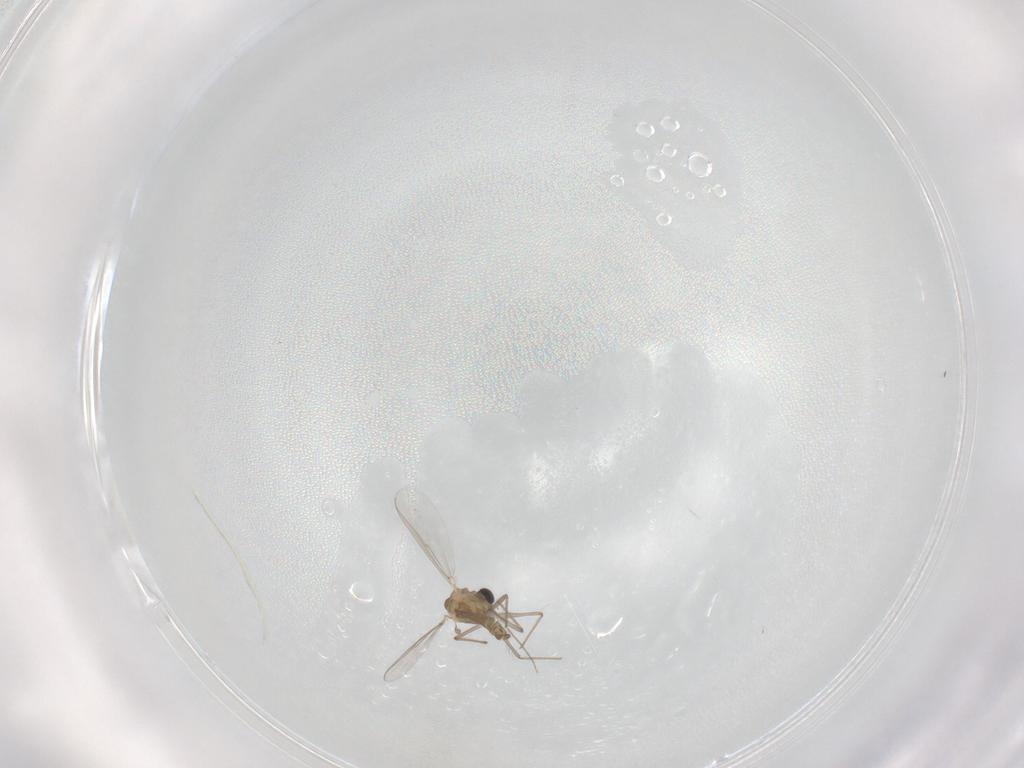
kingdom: Animalia
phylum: Arthropoda
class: Insecta
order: Diptera
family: Chironomidae
